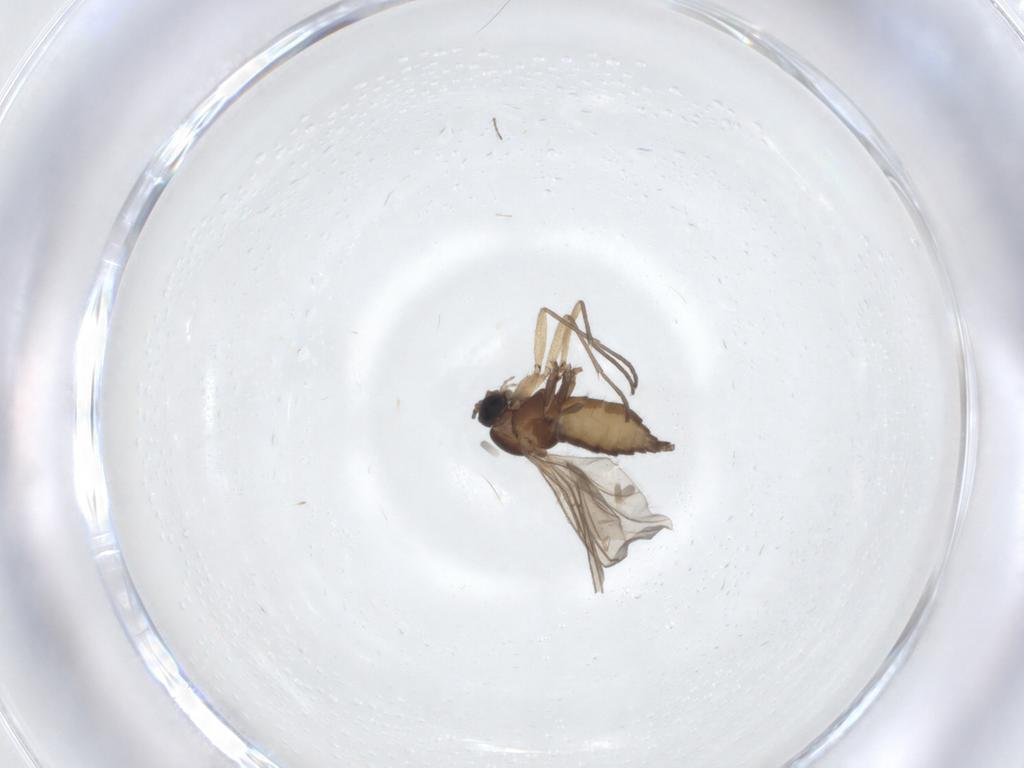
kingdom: Animalia
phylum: Arthropoda
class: Insecta
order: Diptera
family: Sciaridae
